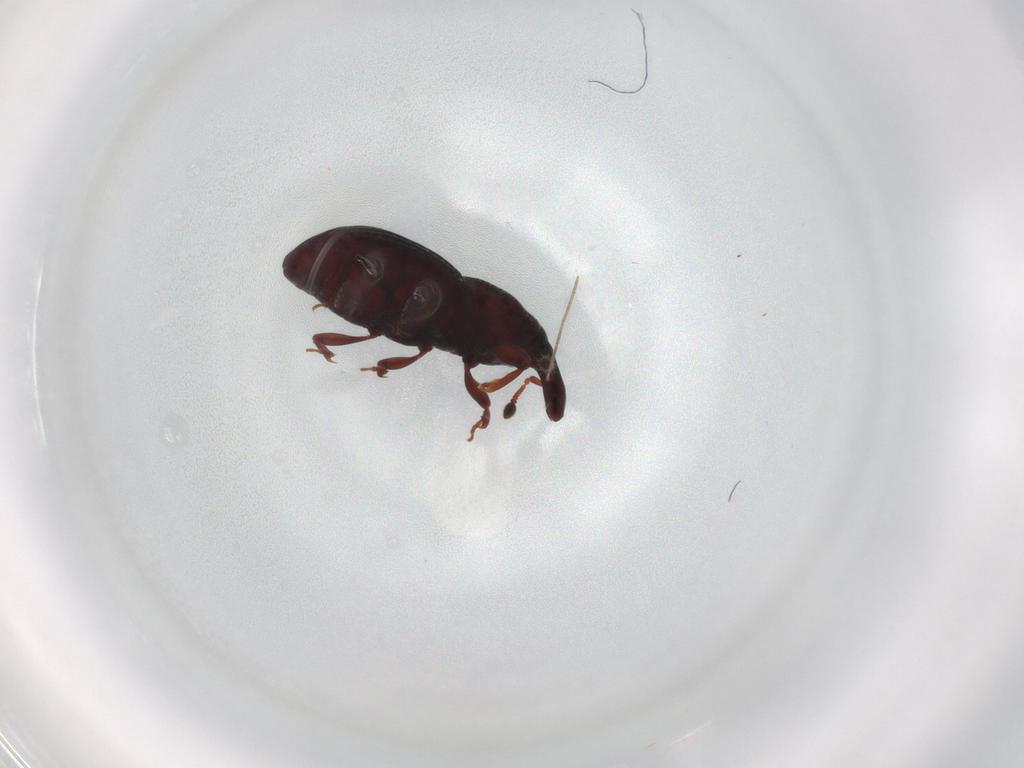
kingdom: Animalia
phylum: Arthropoda
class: Insecta
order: Coleoptera
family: Curculionidae
